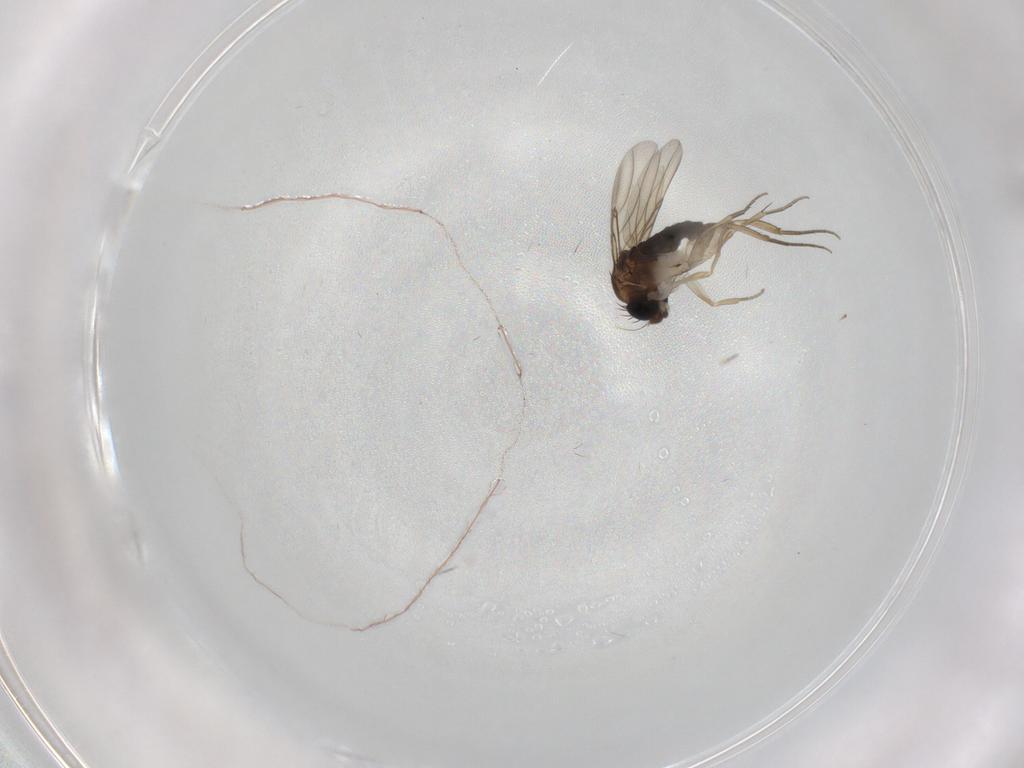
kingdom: Animalia
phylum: Arthropoda
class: Insecta
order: Diptera
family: Phoridae
